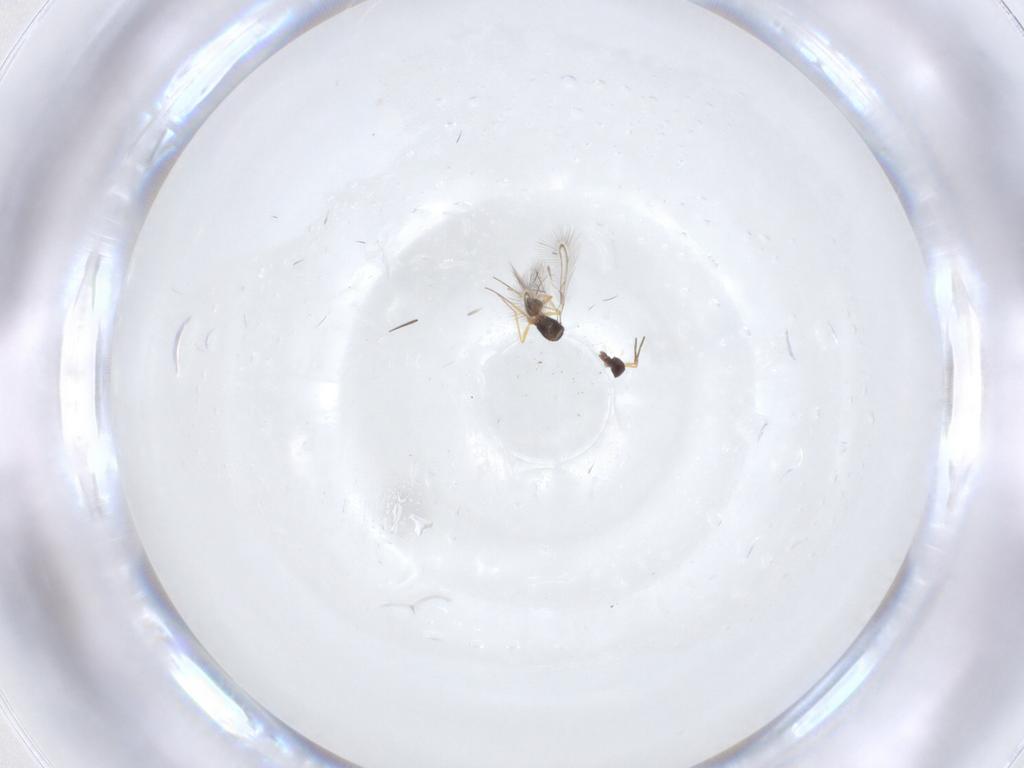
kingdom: Animalia
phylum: Arthropoda
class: Insecta
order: Hymenoptera
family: Mymaridae
